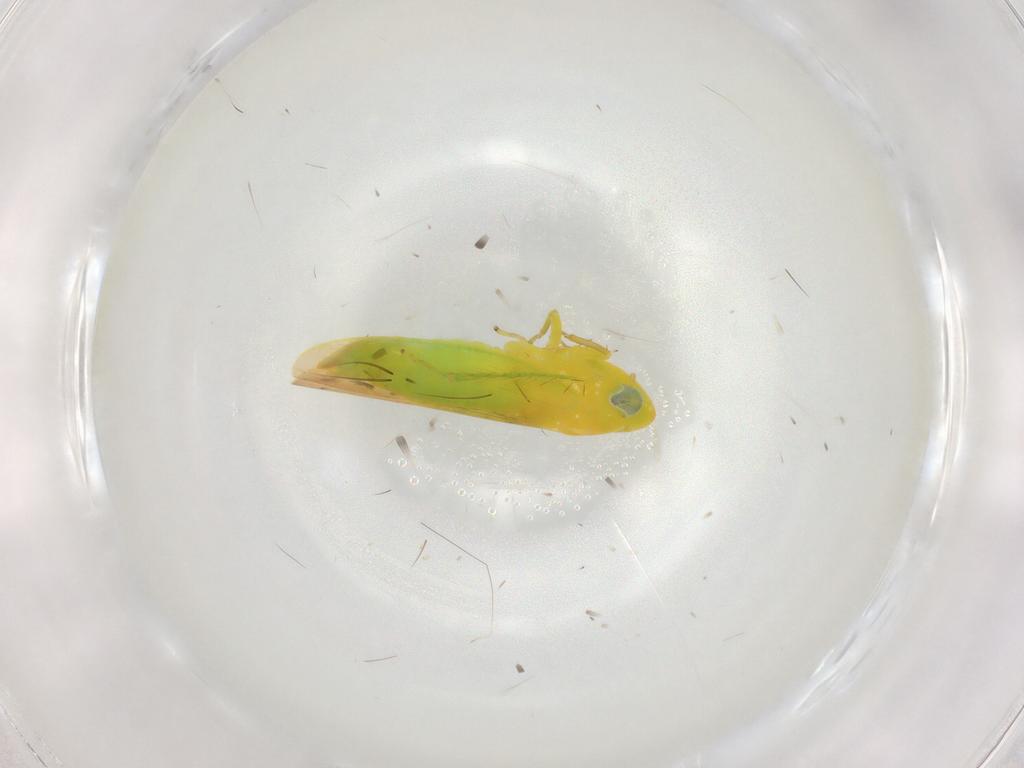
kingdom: Animalia
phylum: Arthropoda
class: Insecta
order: Hemiptera
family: Cicadellidae
